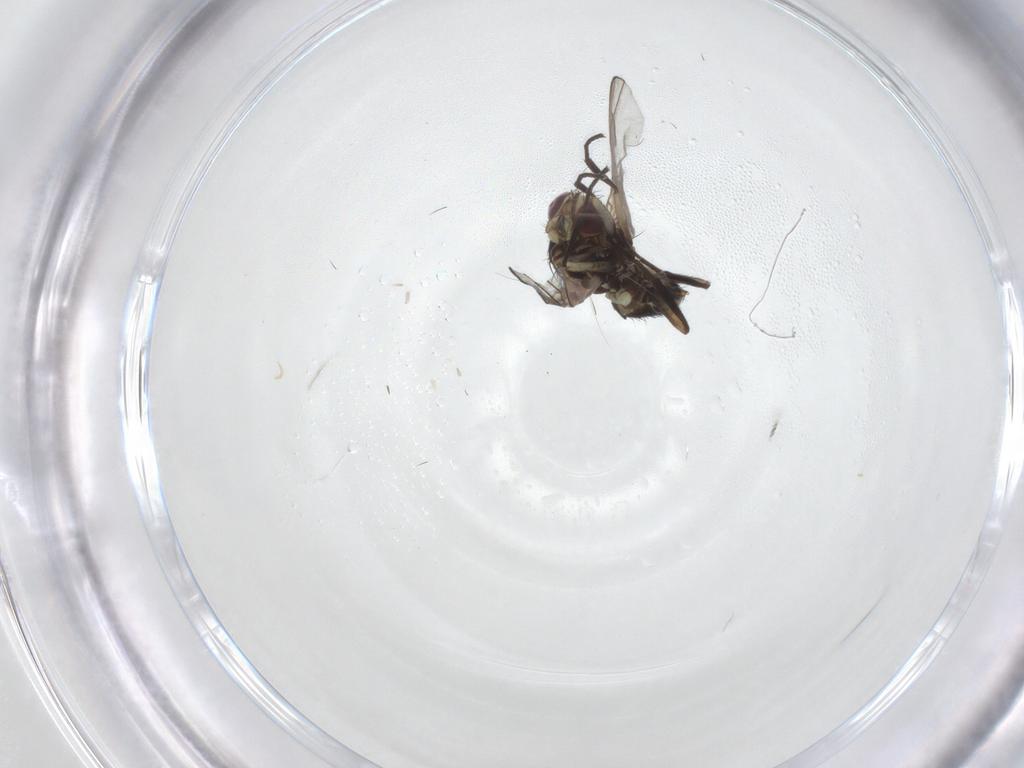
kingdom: Animalia
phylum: Arthropoda
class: Insecta
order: Diptera
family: Agromyzidae
